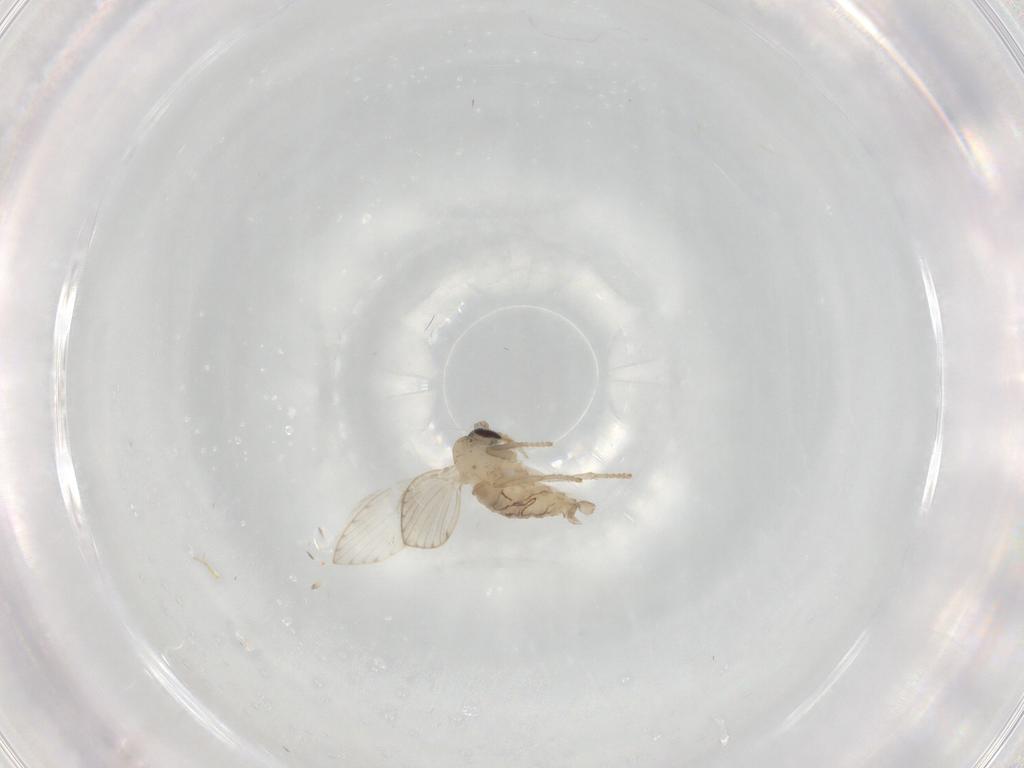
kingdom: Animalia
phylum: Arthropoda
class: Insecta
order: Diptera
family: Psychodidae
